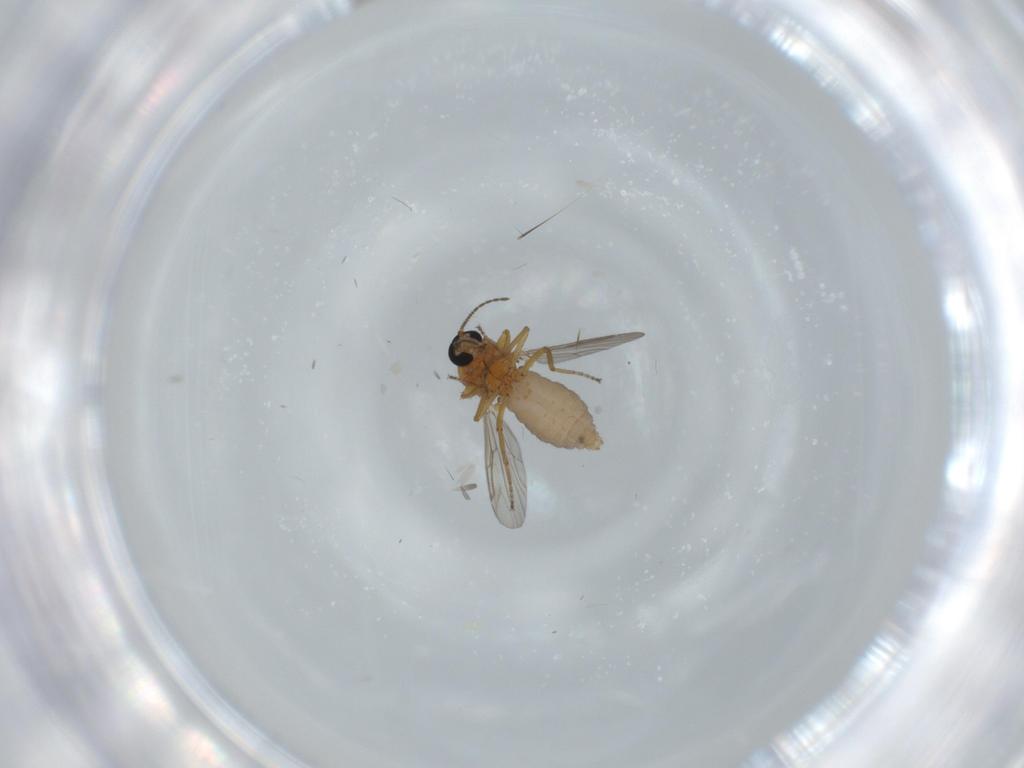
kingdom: Animalia
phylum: Arthropoda
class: Insecta
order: Diptera
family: Ceratopogonidae
